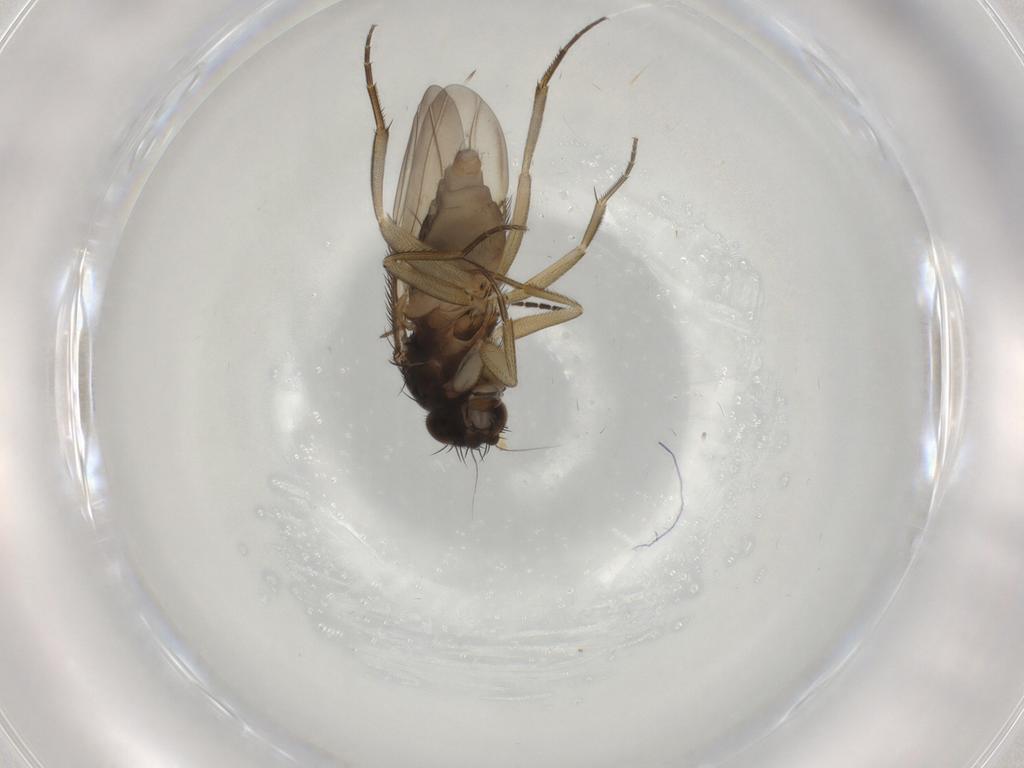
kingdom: Animalia
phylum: Arthropoda
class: Insecta
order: Diptera
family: Phoridae
